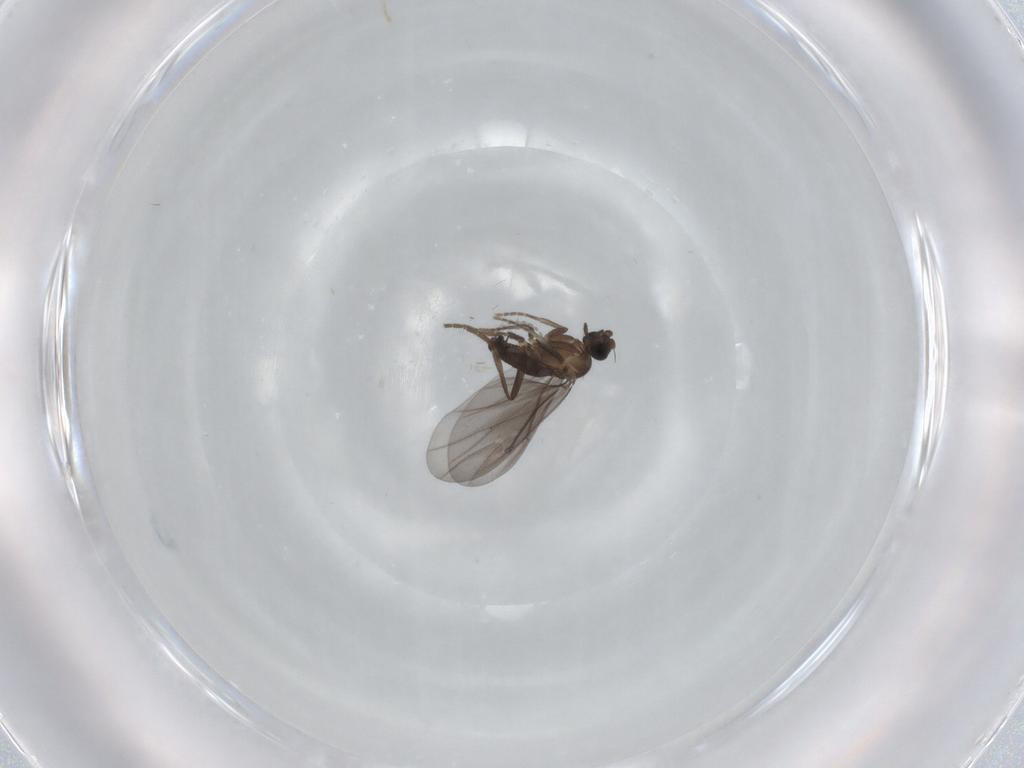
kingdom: Animalia
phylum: Arthropoda
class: Insecta
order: Diptera
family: Phoridae
